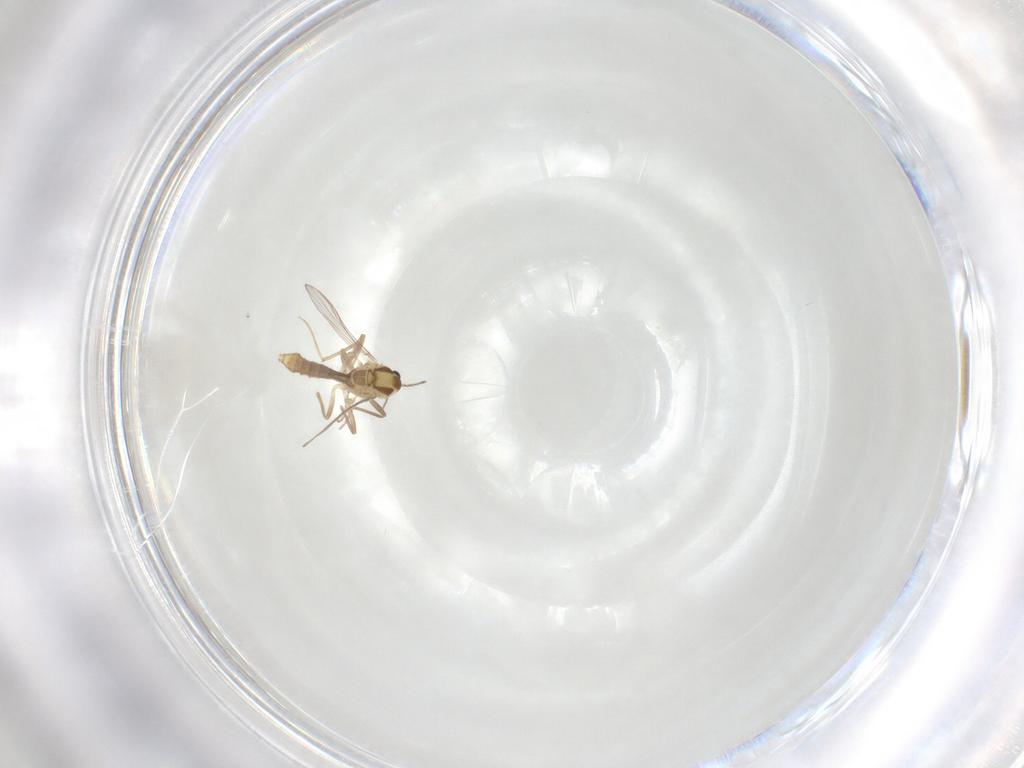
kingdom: Animalia
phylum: Arthropoda
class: Insecta
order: Diptera
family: Chironomidae
